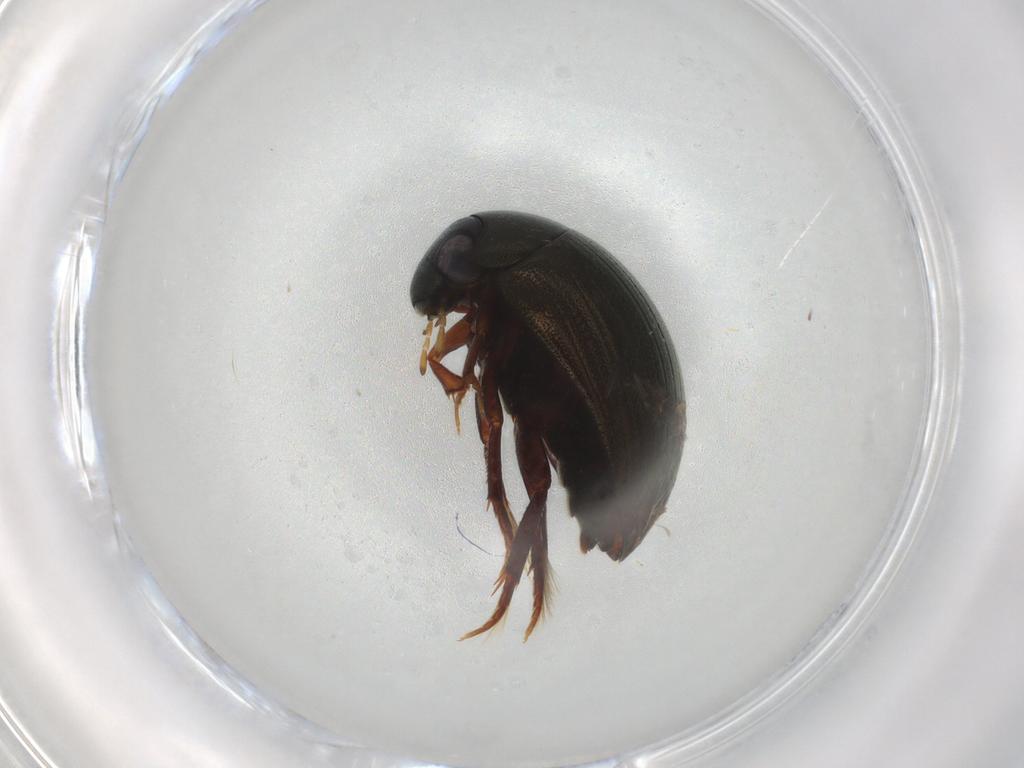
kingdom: Animalia
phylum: Arthropoda
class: Insecta
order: Coleoptera
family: Hydrophilidae
